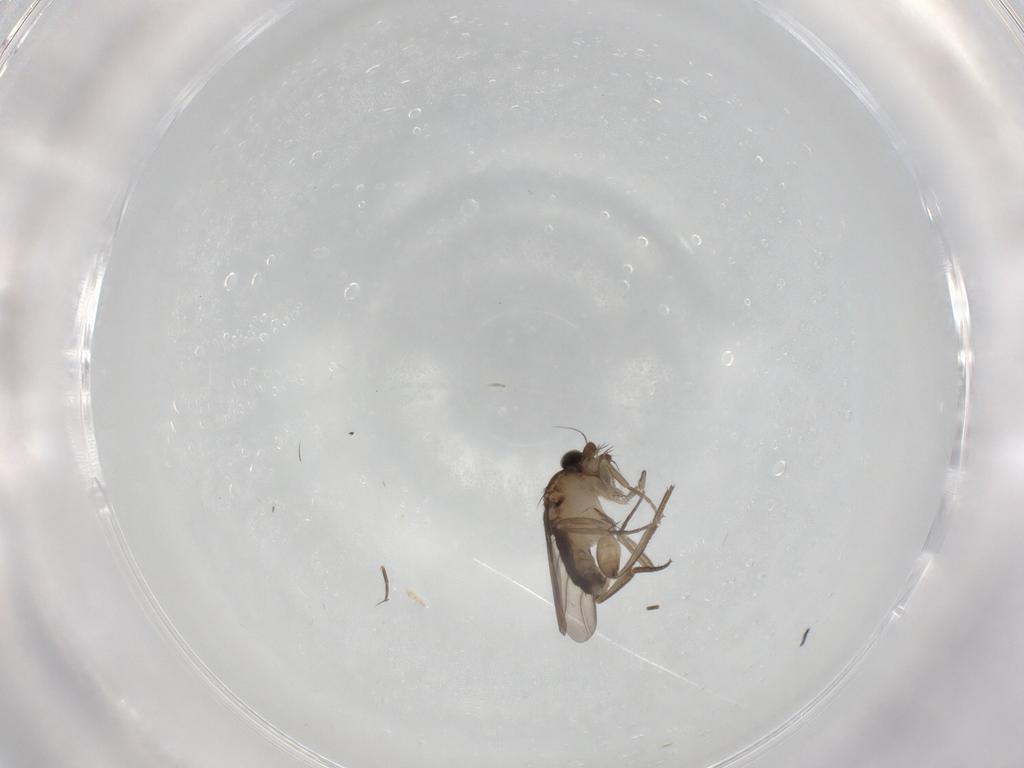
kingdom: Animalia
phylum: Arthropoda
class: Insecta
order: Diptera
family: Phoridae
